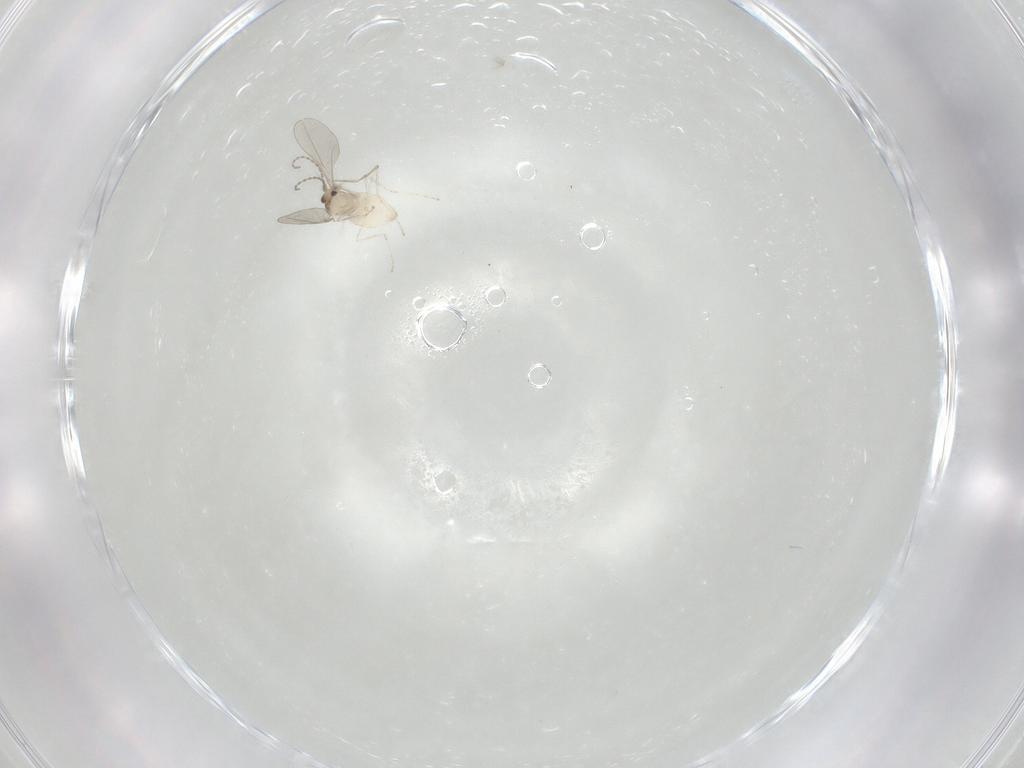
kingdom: Animalia
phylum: Arthropoda
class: Insecta
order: Diptera
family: Cecidomyiidae
